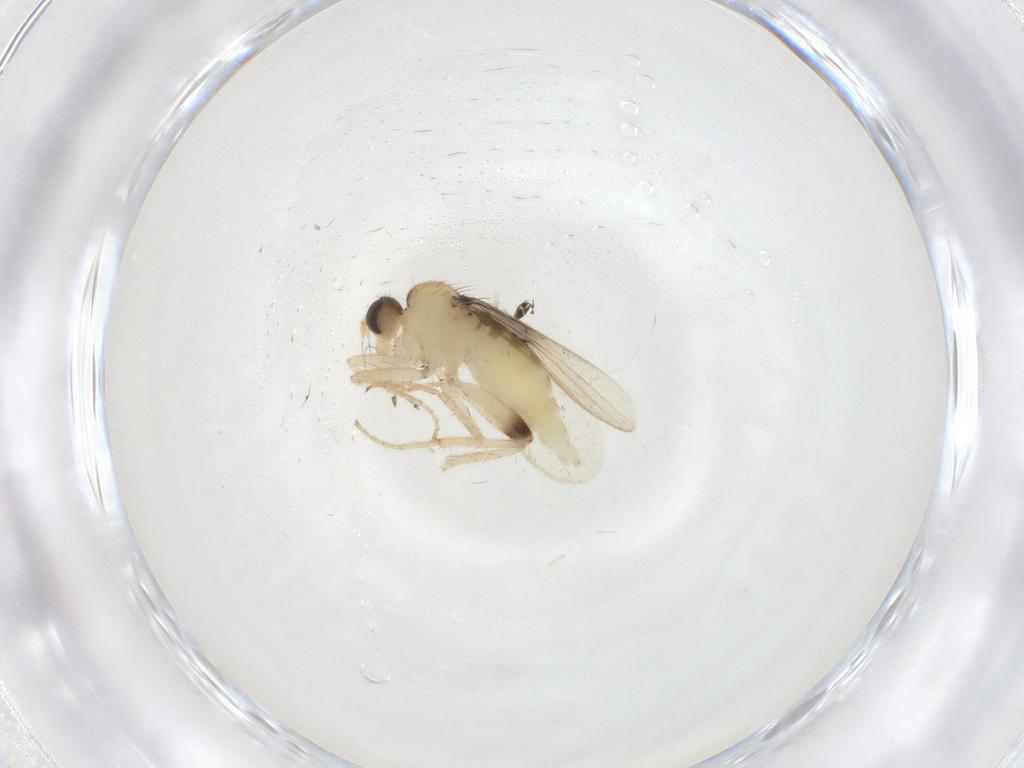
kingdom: Animalia
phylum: Arthropoda
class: Insecta
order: Diptera
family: Hybotidae
